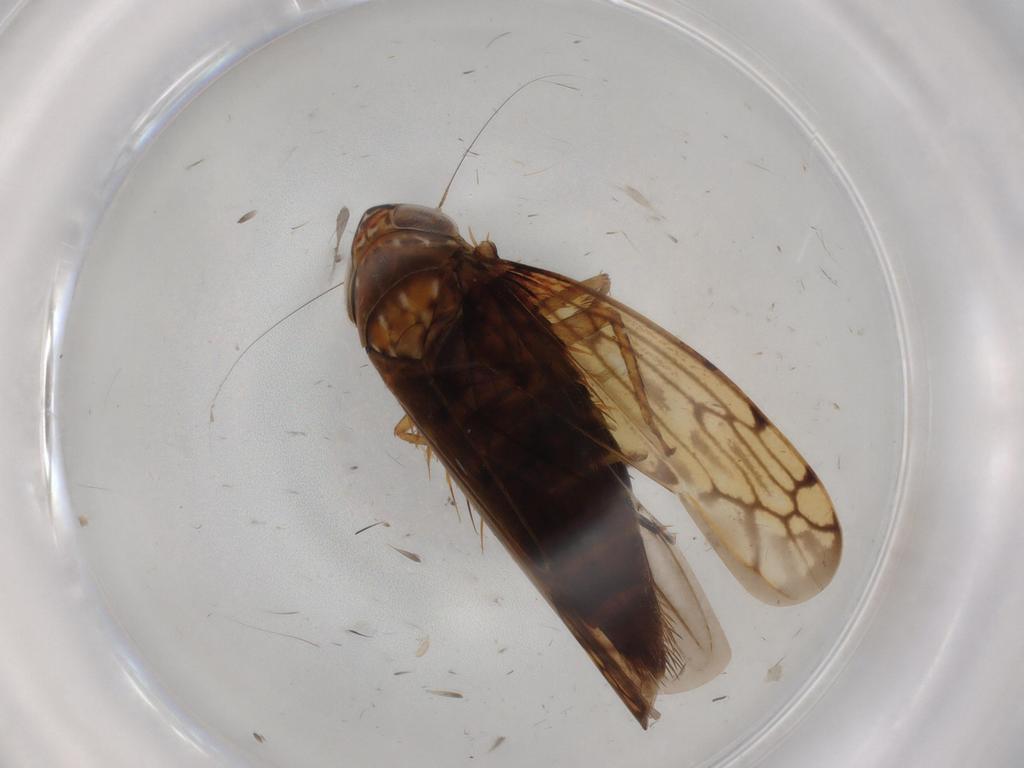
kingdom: Animalia
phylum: Arthropoda
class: Insecta
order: Hemiptera
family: Cicadellidae
